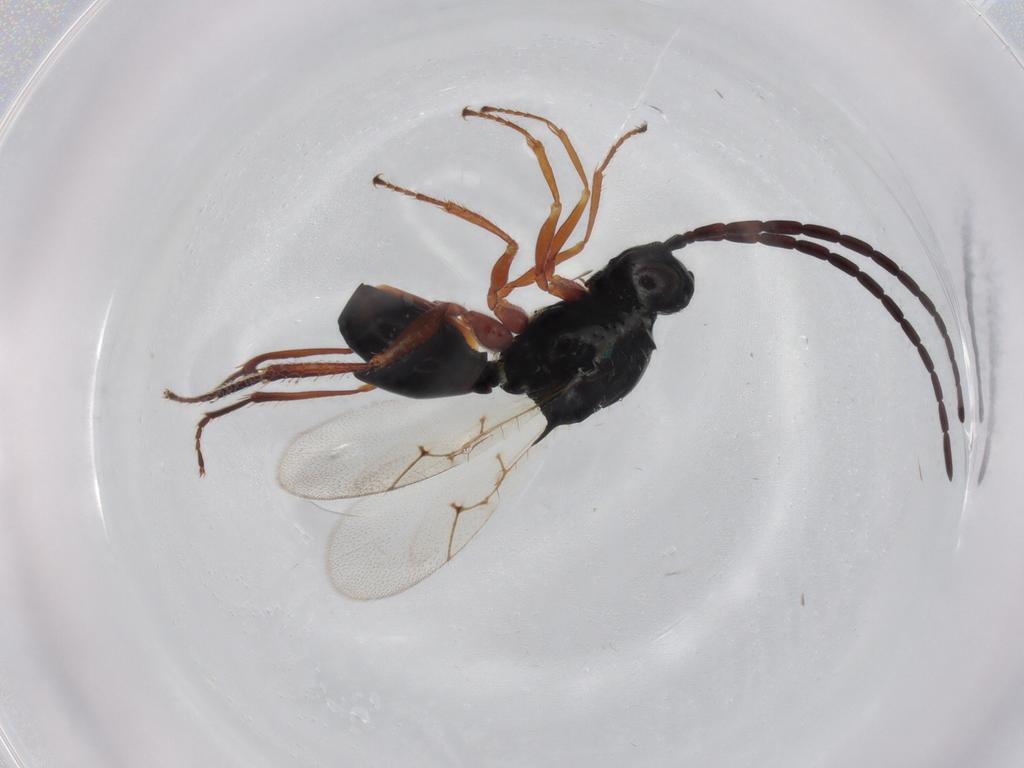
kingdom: Animalia
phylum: Arthropoda
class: Insecta
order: Hymenoptera
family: Figitidae
